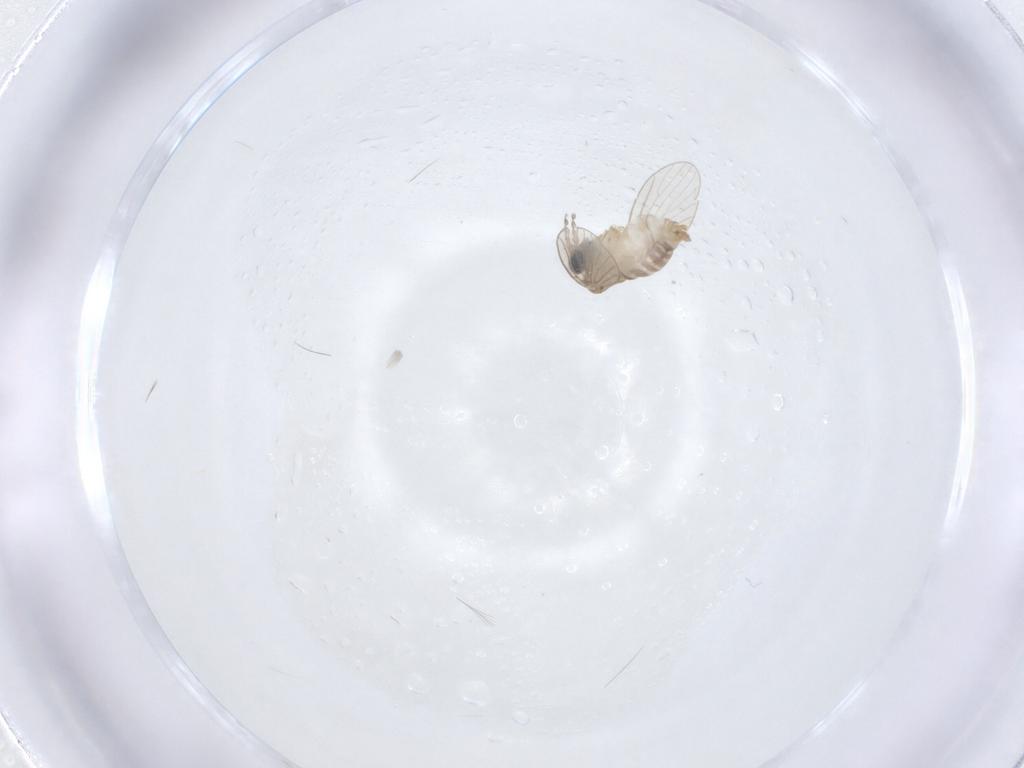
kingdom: Animalia
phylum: Arthropoda
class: Insecta
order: Diptera
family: Psychodidae
